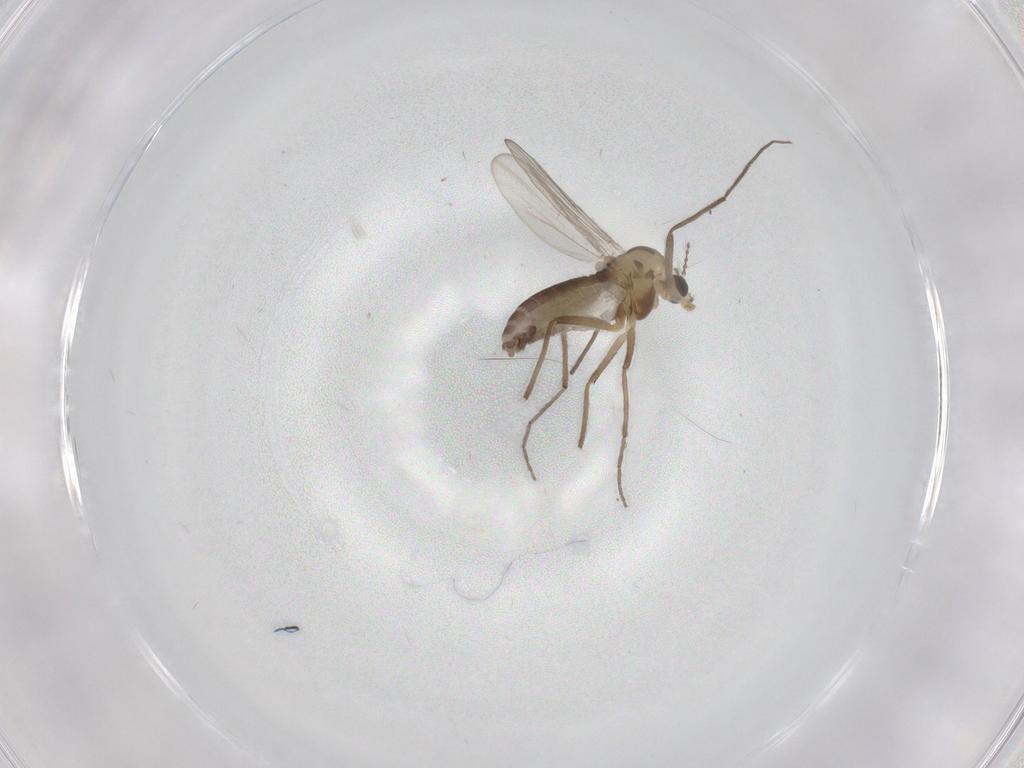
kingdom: Animalia
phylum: Arthropoda
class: Insecta
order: Diptera
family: Chironomidae
